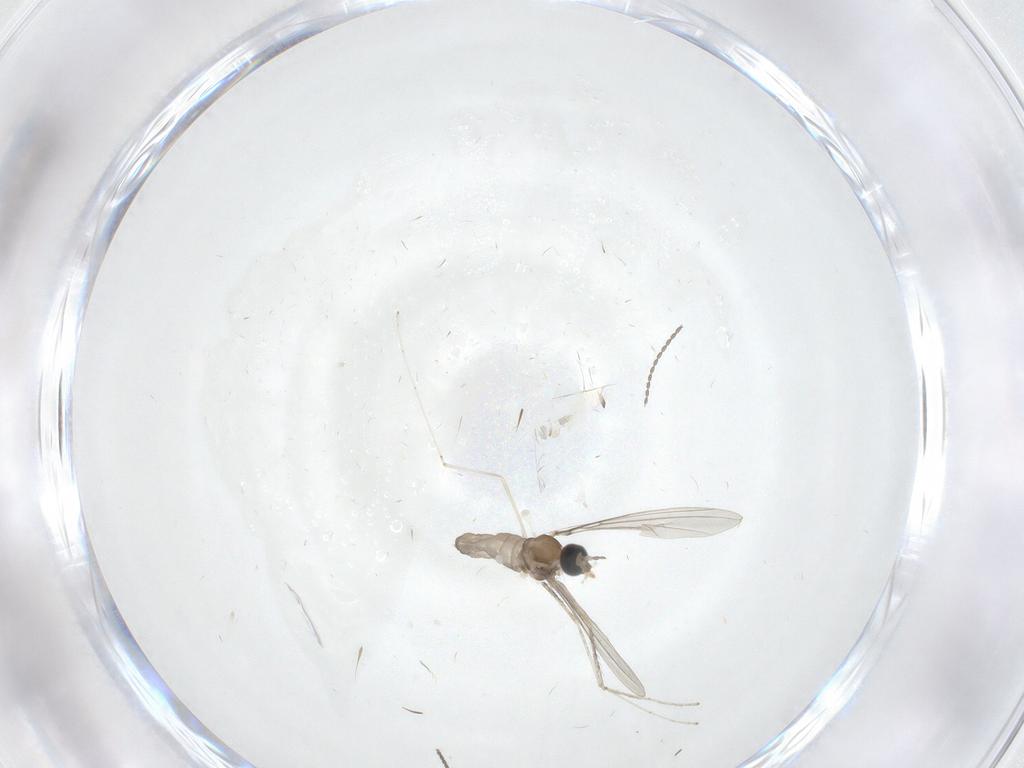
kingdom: Animalia
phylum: Arthropoda
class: Insecta
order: Diptera
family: Cecidomyiidae
